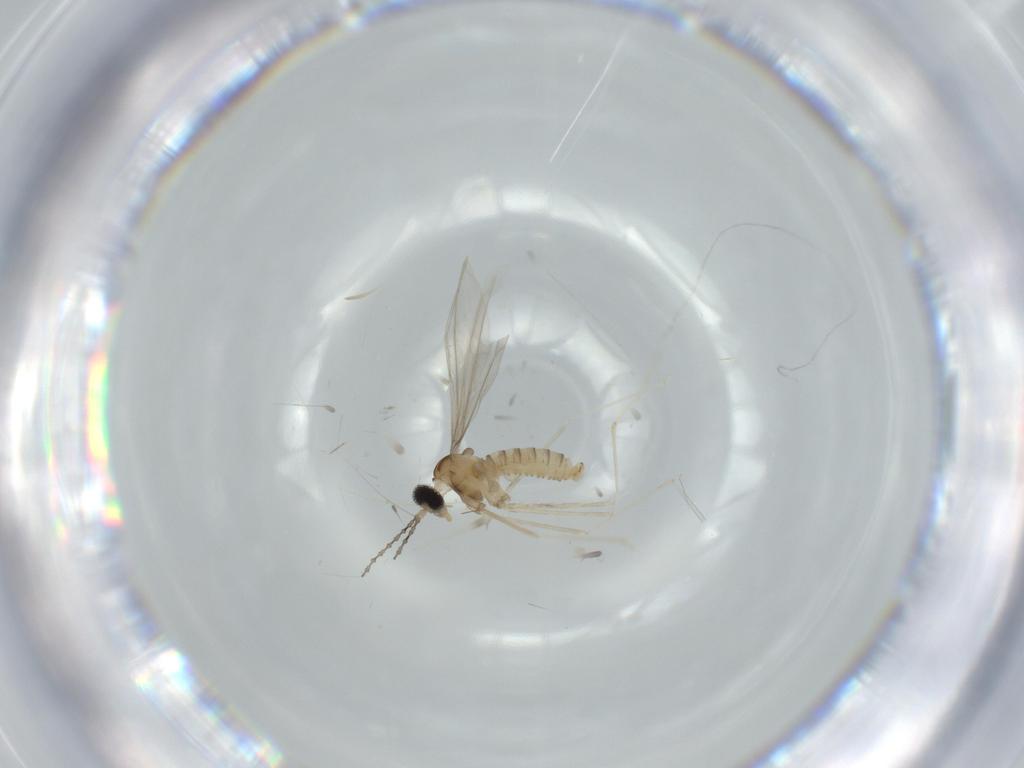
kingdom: Animalia
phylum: Arthropoda
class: Insecta
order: Diptera
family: Cecidomyiidae
